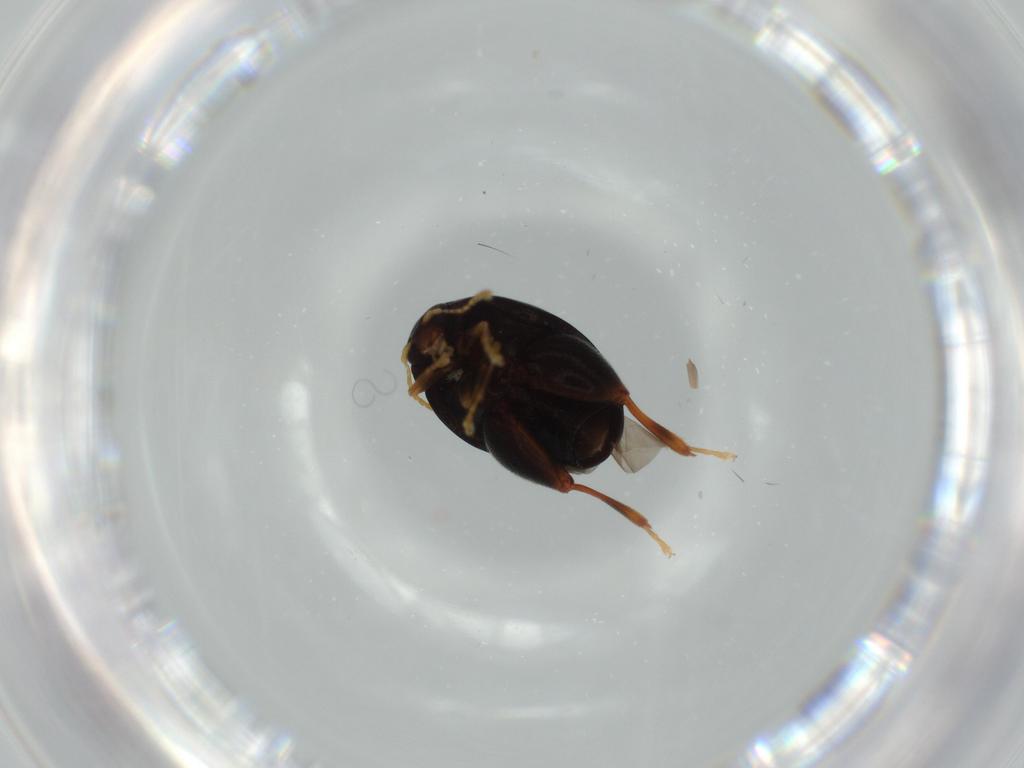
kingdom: Animalia
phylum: Arthropoda
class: Insecta
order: Coleoptera
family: Chrysomelidae
